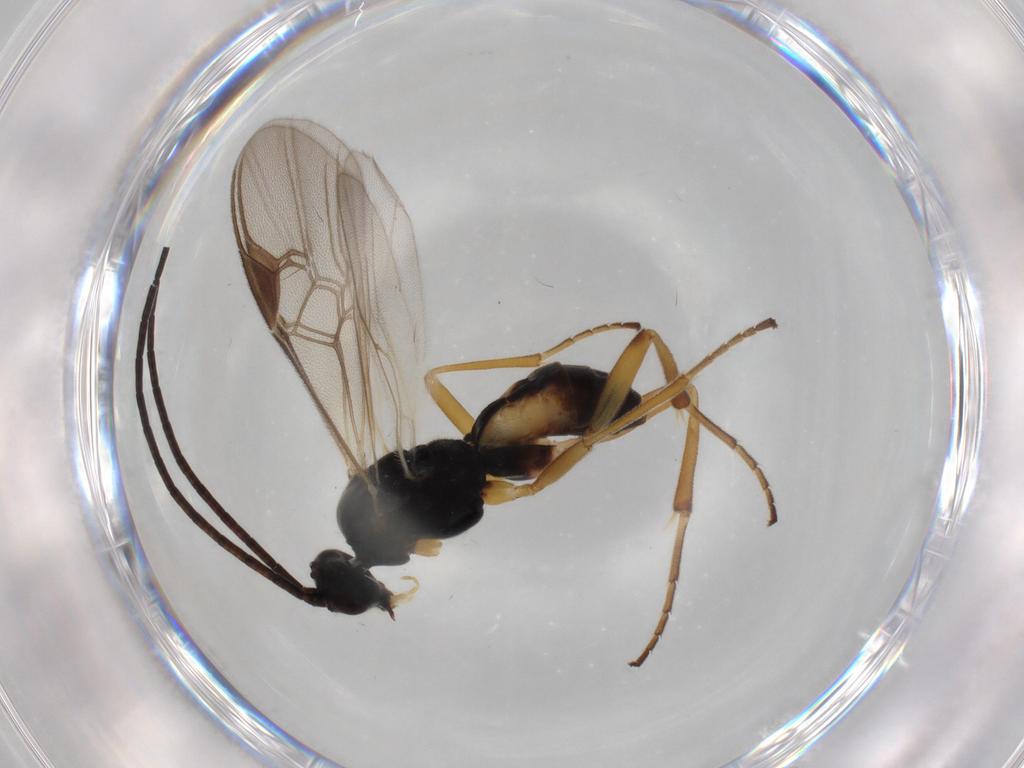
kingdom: Animalia
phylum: Arthropoda
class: Insecta
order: Hymenoptera
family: Braconidae
